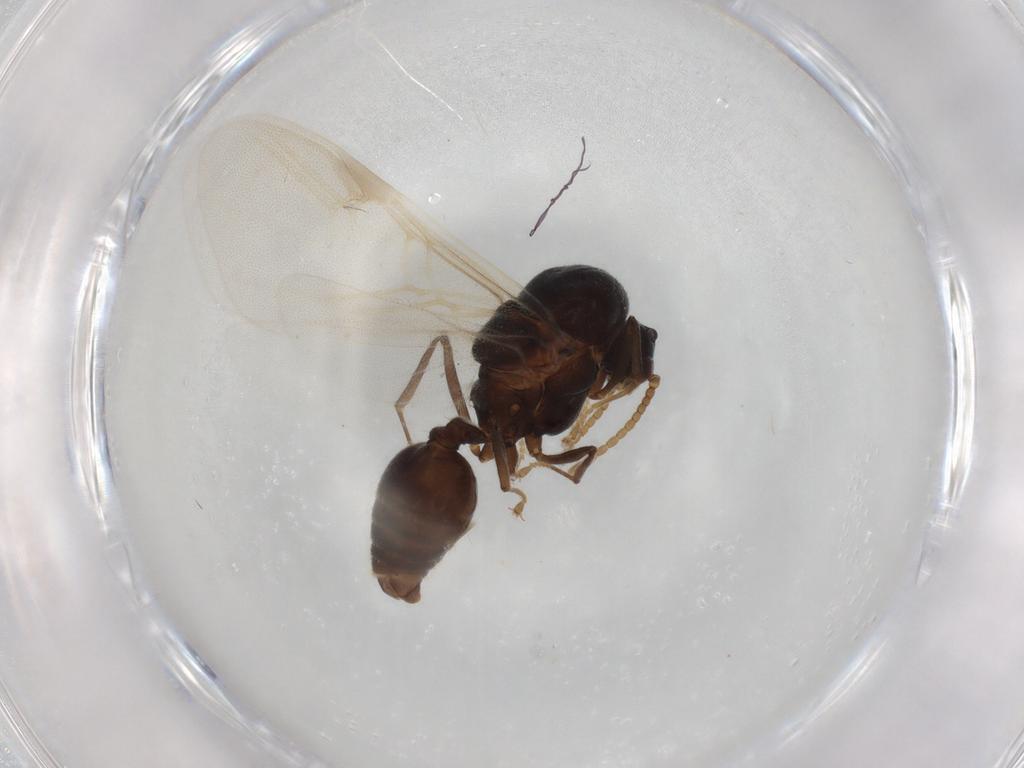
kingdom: Animalia
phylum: Arthropoda
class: Insecta
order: Hymenoptera
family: Formicidae
